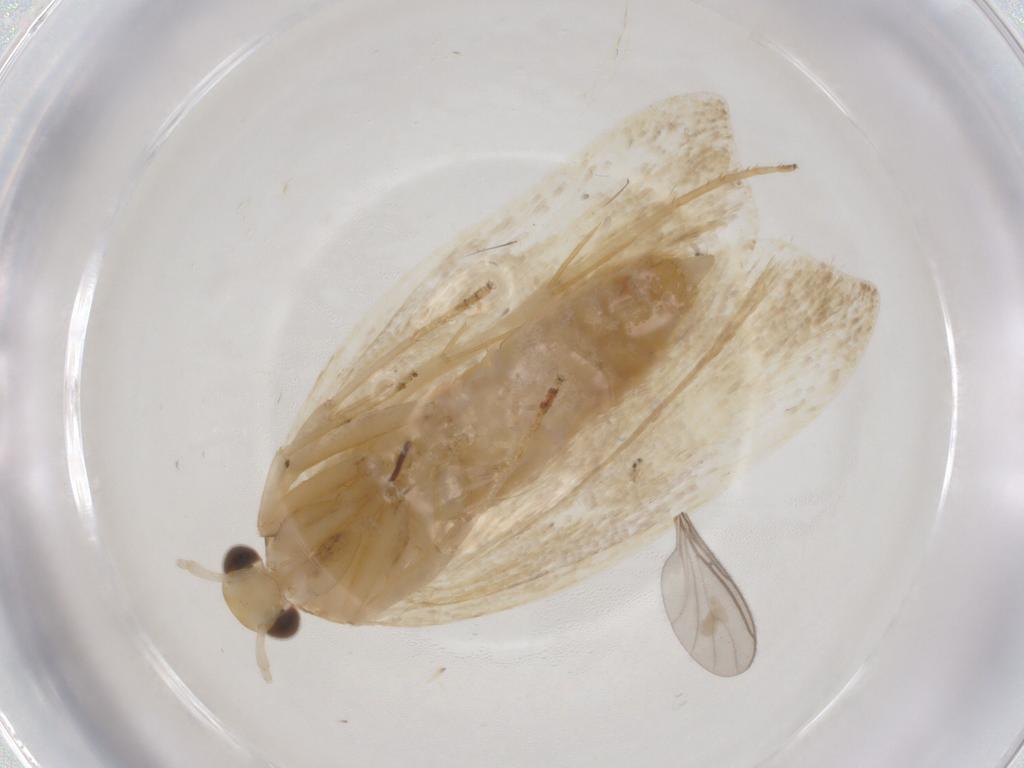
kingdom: Animalia
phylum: Arthropoda
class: Insecta
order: Lepidoptera
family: Lecithoceridae
